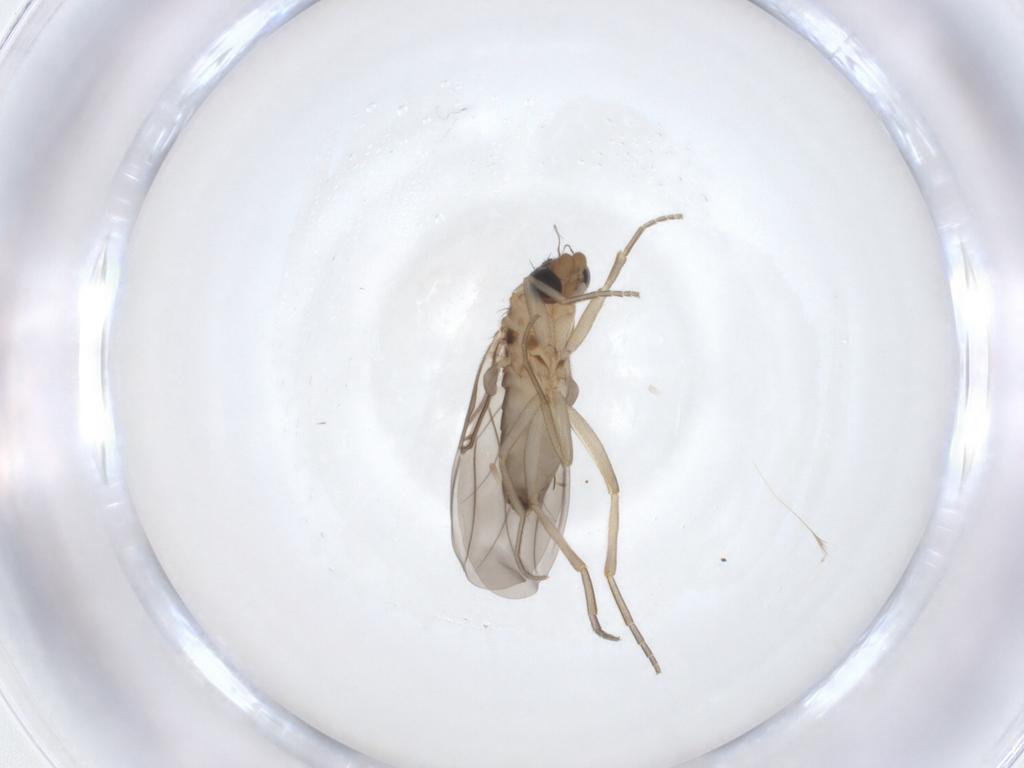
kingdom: Animalia
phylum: Arthropoda
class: Insecta
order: Diptera
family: Phoridae
